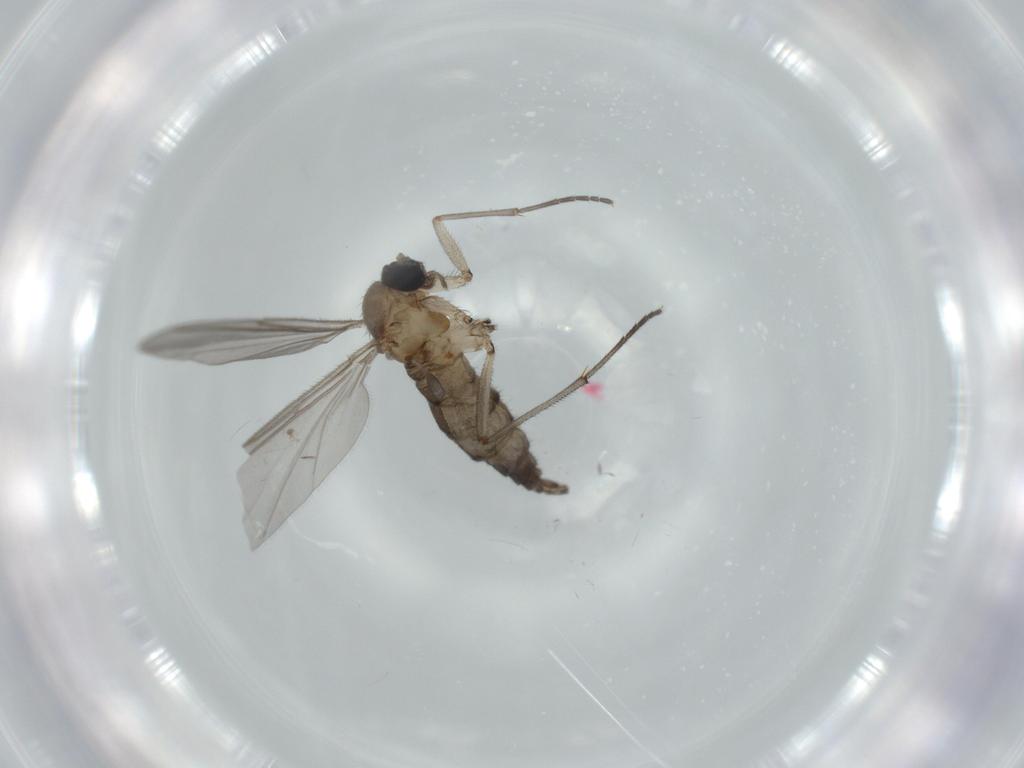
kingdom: Animalia
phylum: Arthropoda
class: Insecta
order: Diptera
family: Sciaridae
